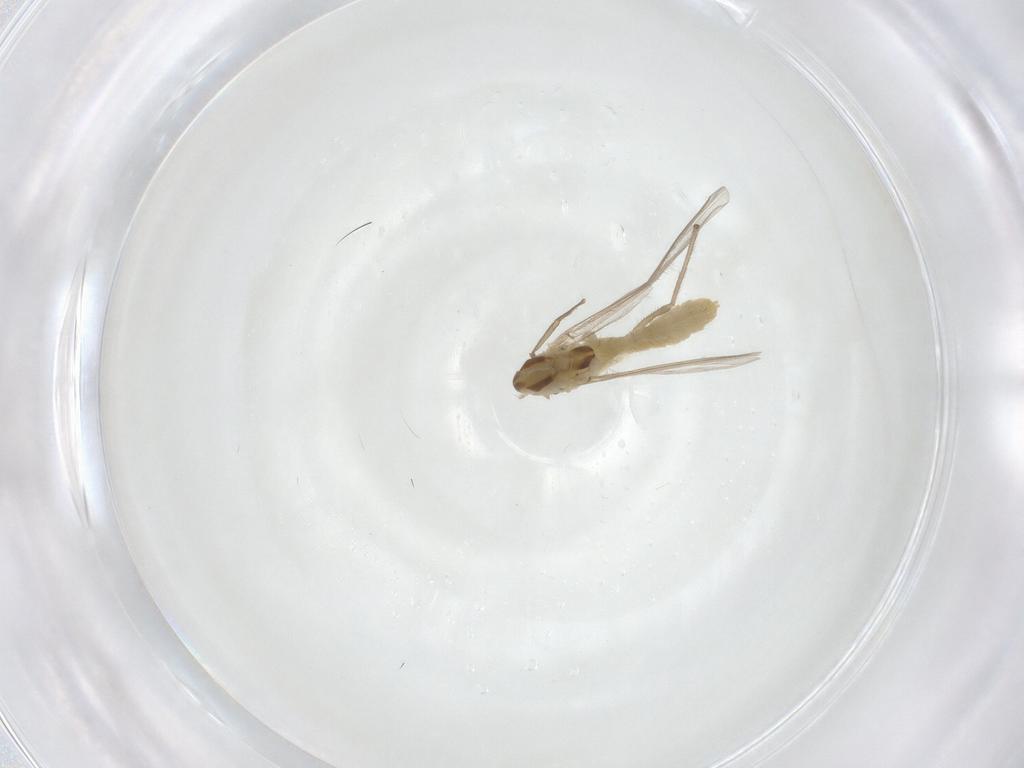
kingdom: Animalia
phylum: Arthropoda
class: Insecta
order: Diptera
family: Chironomidae
